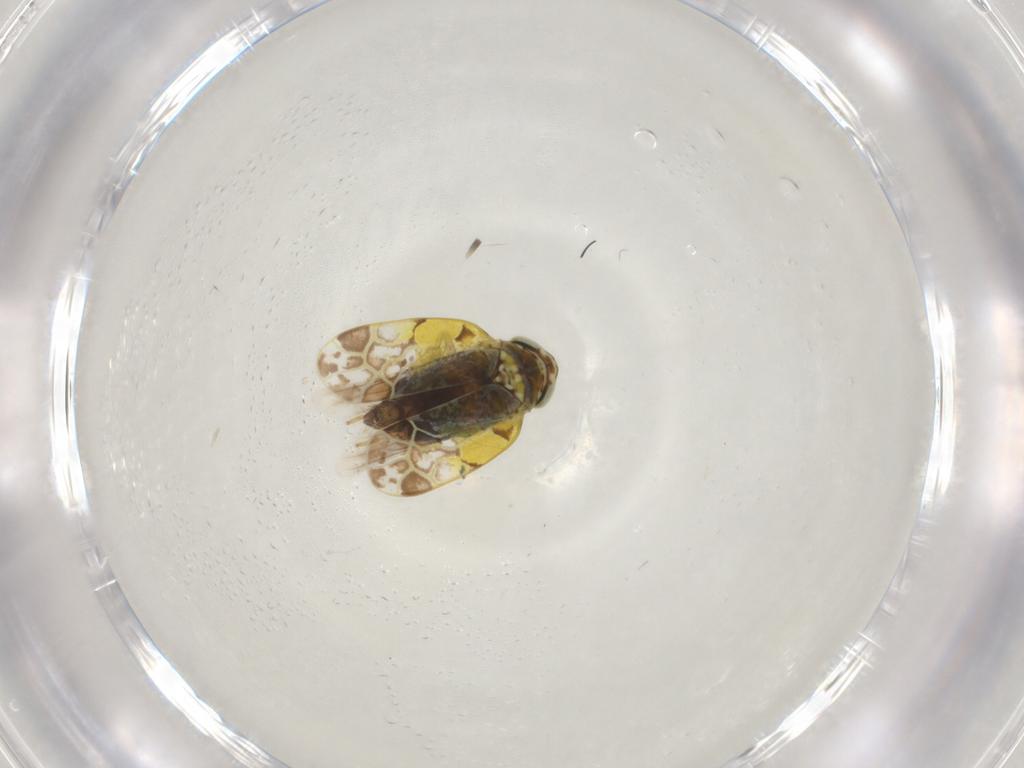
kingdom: Animalia
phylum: Arthropoda
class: Insecta
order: Hemiptera
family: Cicadellidae
